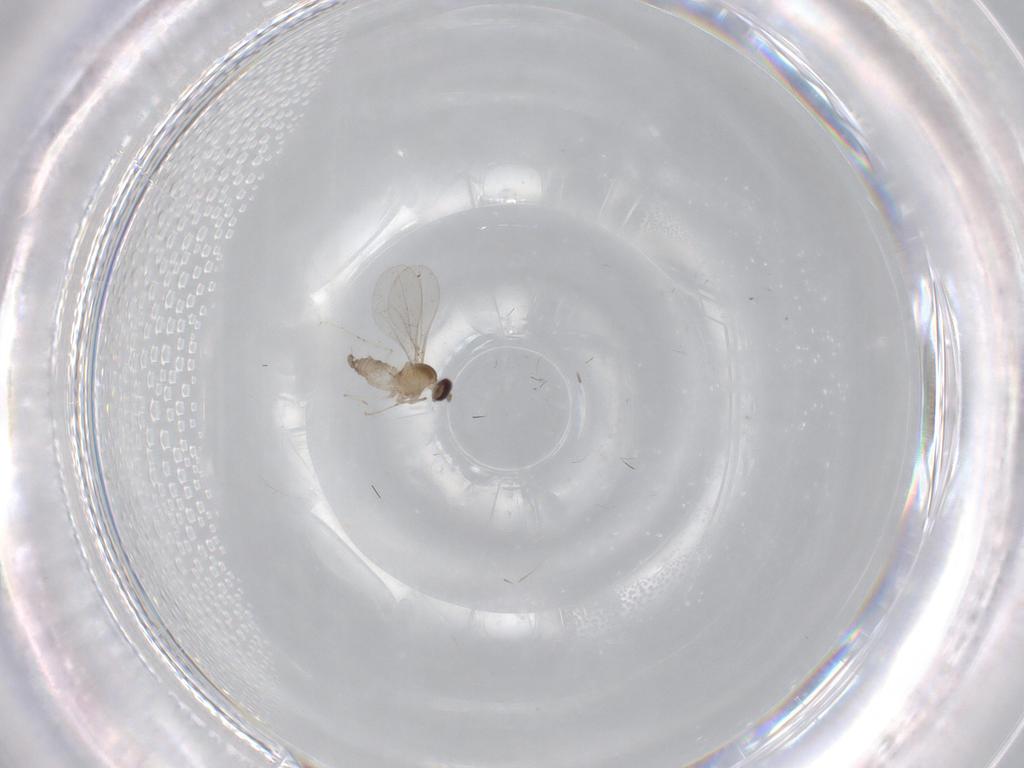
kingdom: Animalia
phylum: Arthropoda
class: Insecta
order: Diptera
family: Cecidomyiidae
